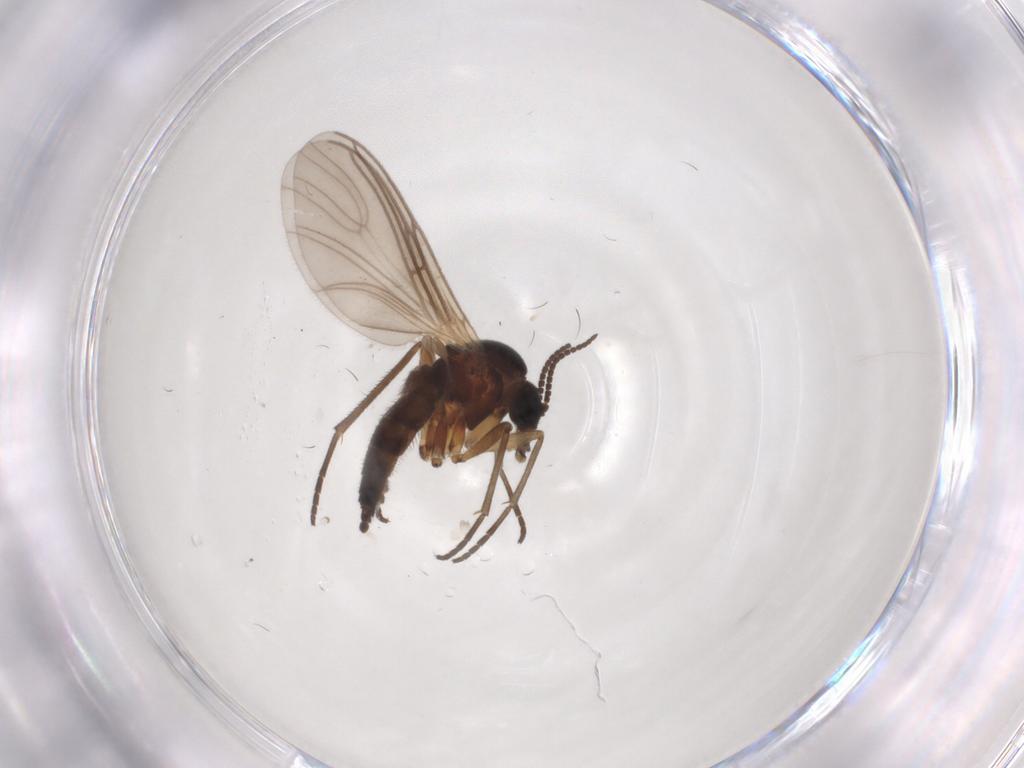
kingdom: Animalia
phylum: Arthropoda
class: Insecta
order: Diptera
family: Sciaridae
